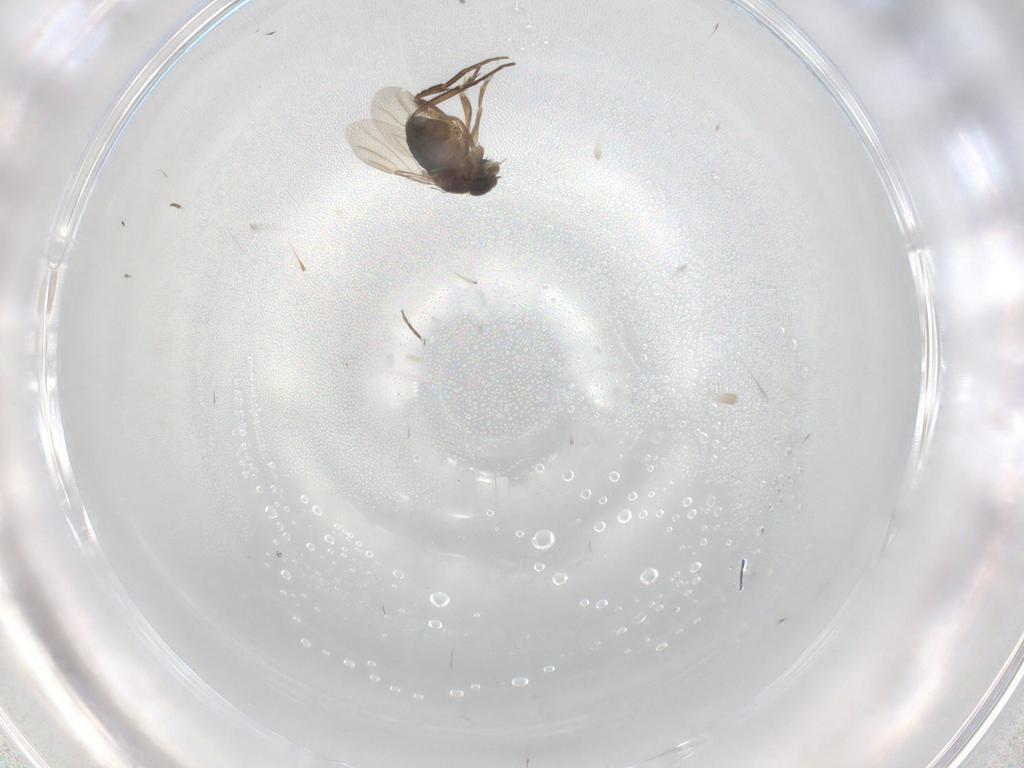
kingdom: Animalia
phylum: Arthropoda
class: Insecta
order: Diptera
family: Phoridae
